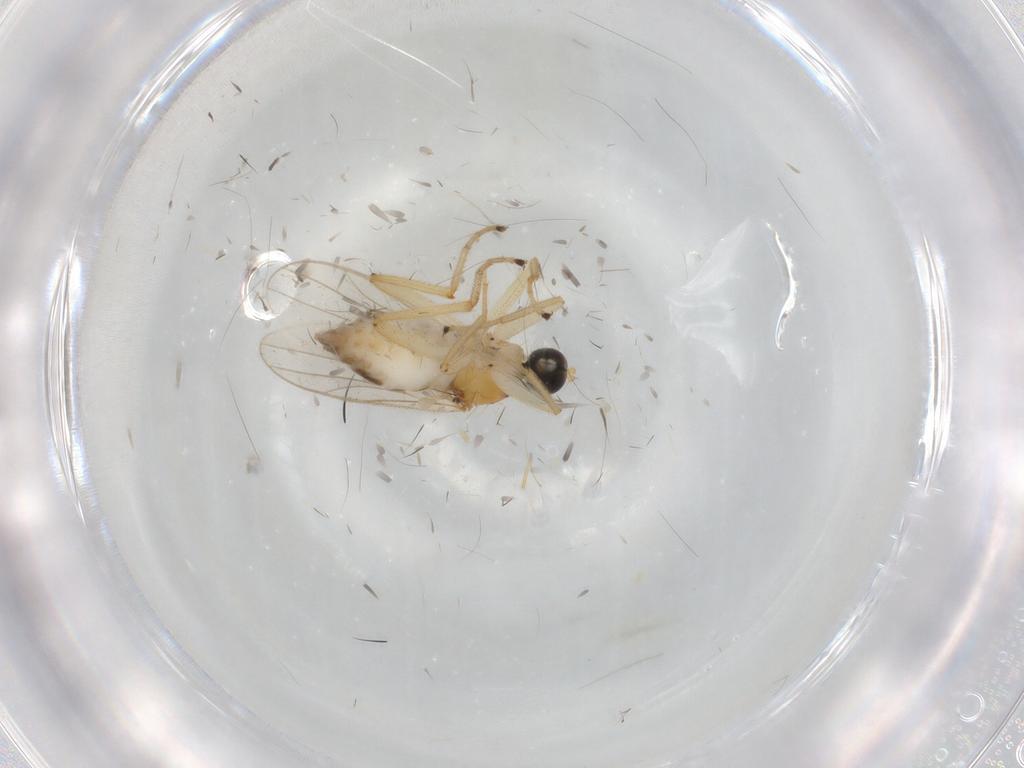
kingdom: Animalia
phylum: Arthropoda
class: Insecta
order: Diptera
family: Hybotidae
